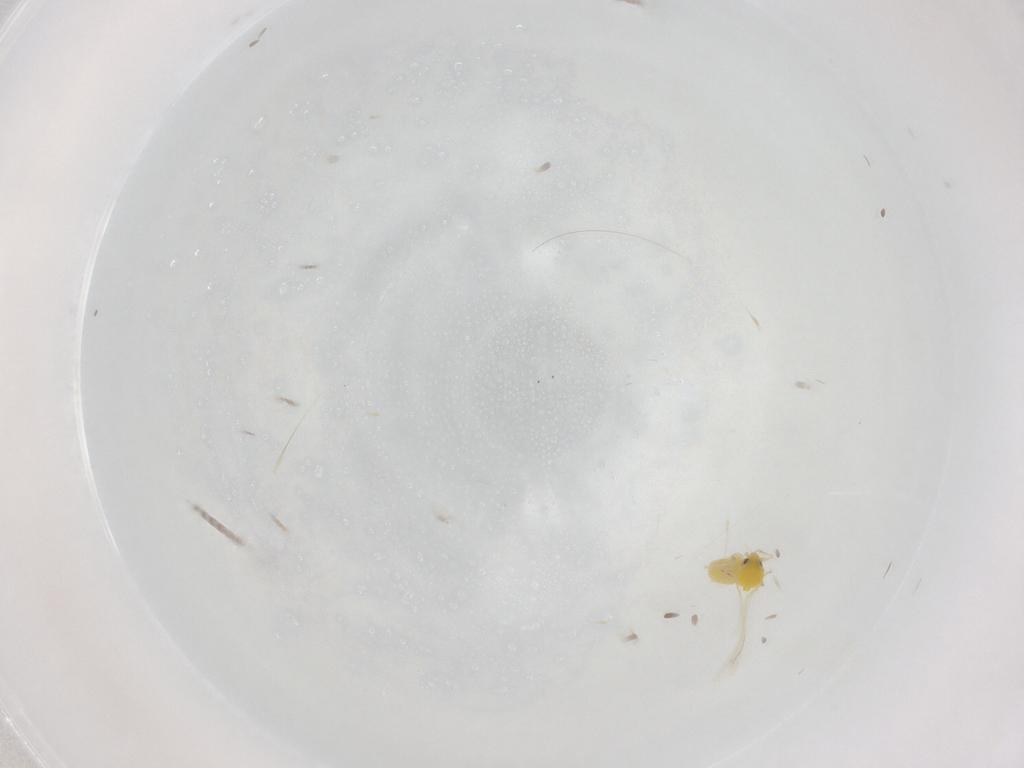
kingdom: Animalia
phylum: Arthropoda
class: Insecta
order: Hemiptera
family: Aleyrodidae
